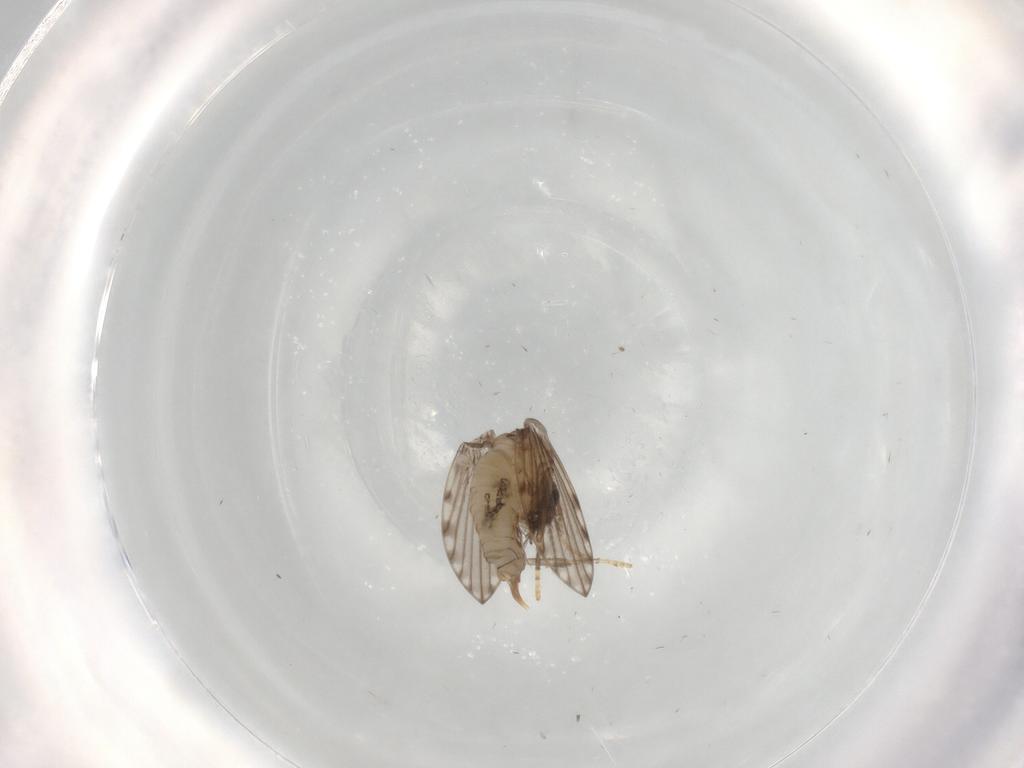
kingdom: Animalia
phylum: Arthropoda
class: Insecta
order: Diptera
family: Psychodidae
